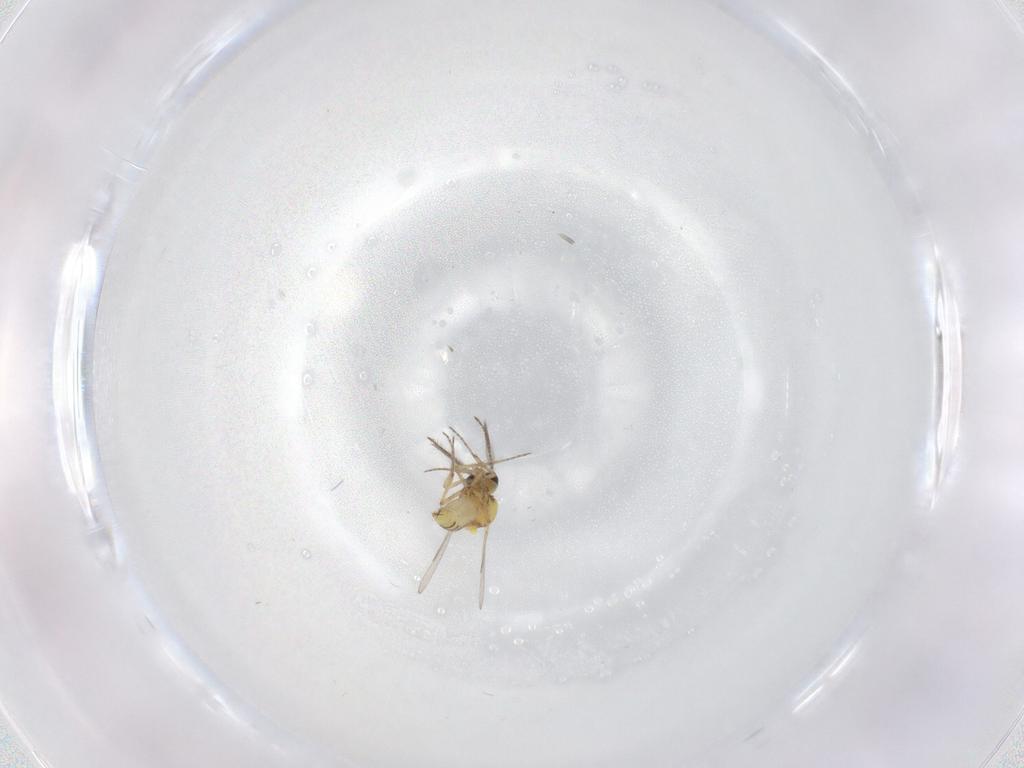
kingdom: Animalia
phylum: Arthropoda
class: Insecta
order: Diptera
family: Ceratopogonidae
